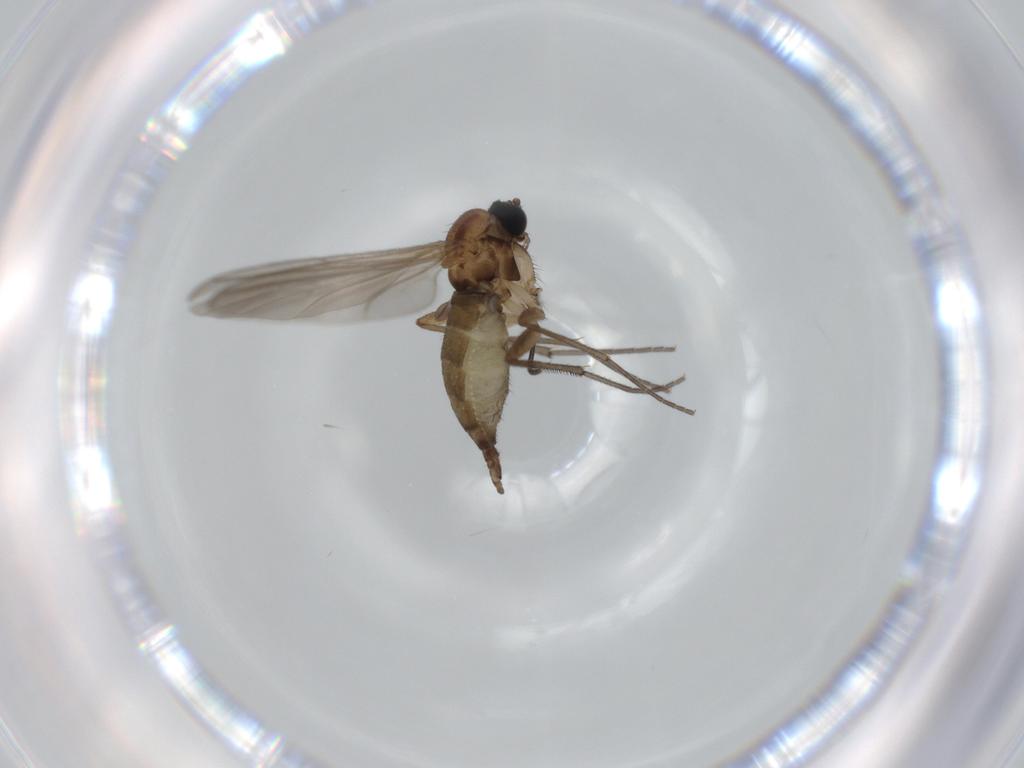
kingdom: Animalia
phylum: Arthropoda
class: Insecta
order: Diptera
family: Sciaridae
